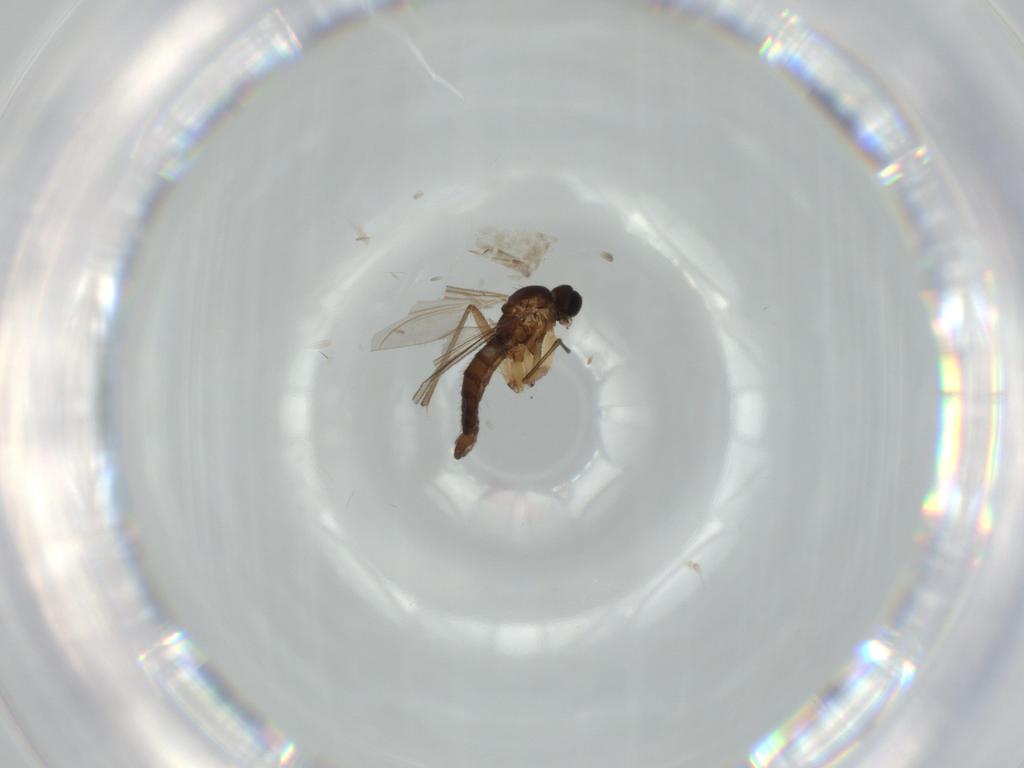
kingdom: Animalia
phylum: Arthropoda
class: Insecta
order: Diptera
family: Sciaridae
